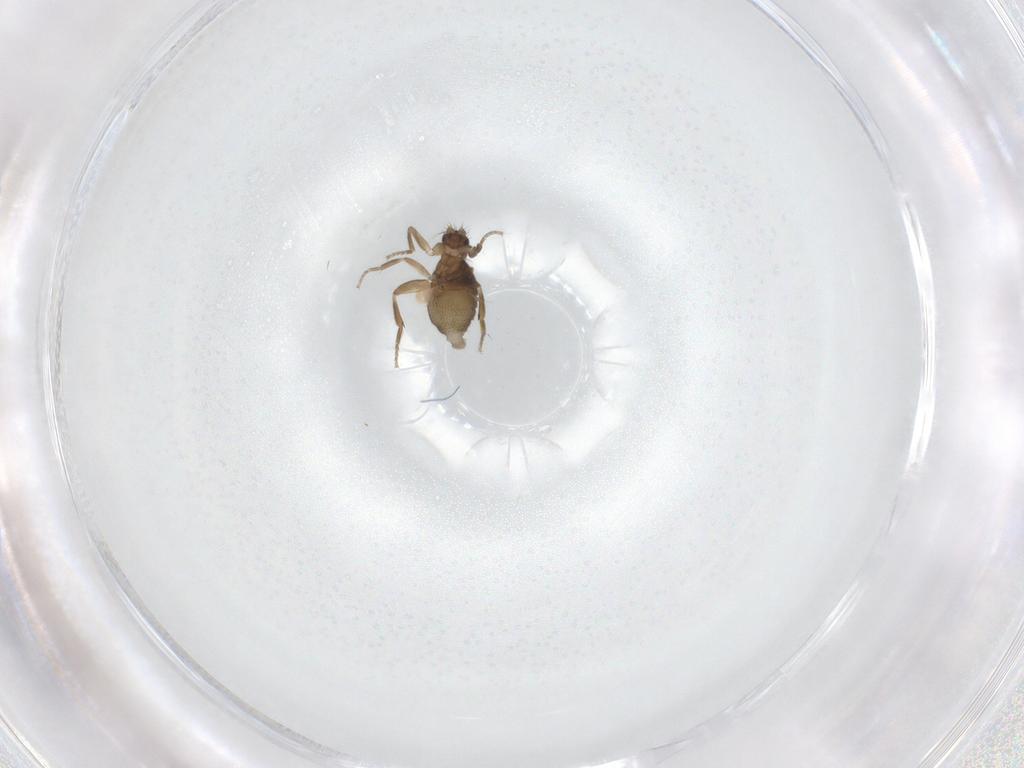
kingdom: Animalia
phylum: Arthropoda
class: Insecta
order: Diptera
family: Phoridae
